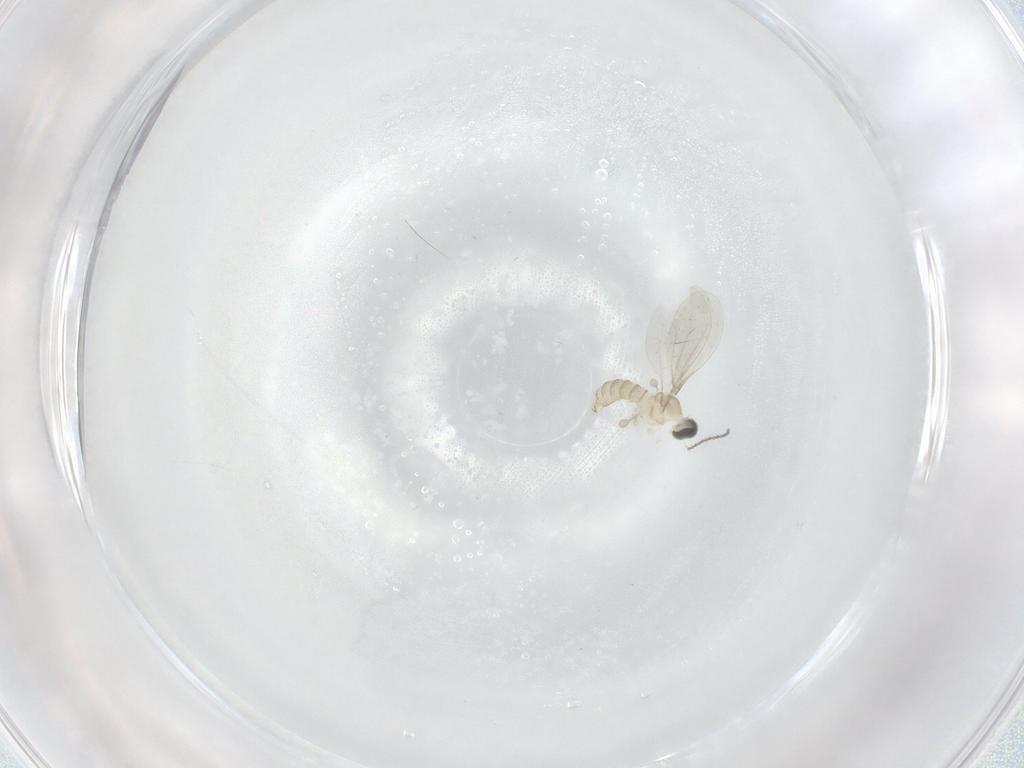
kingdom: Animalia
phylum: Arthropoda
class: Insecta
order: Diptera
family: Cecidomyiidae
